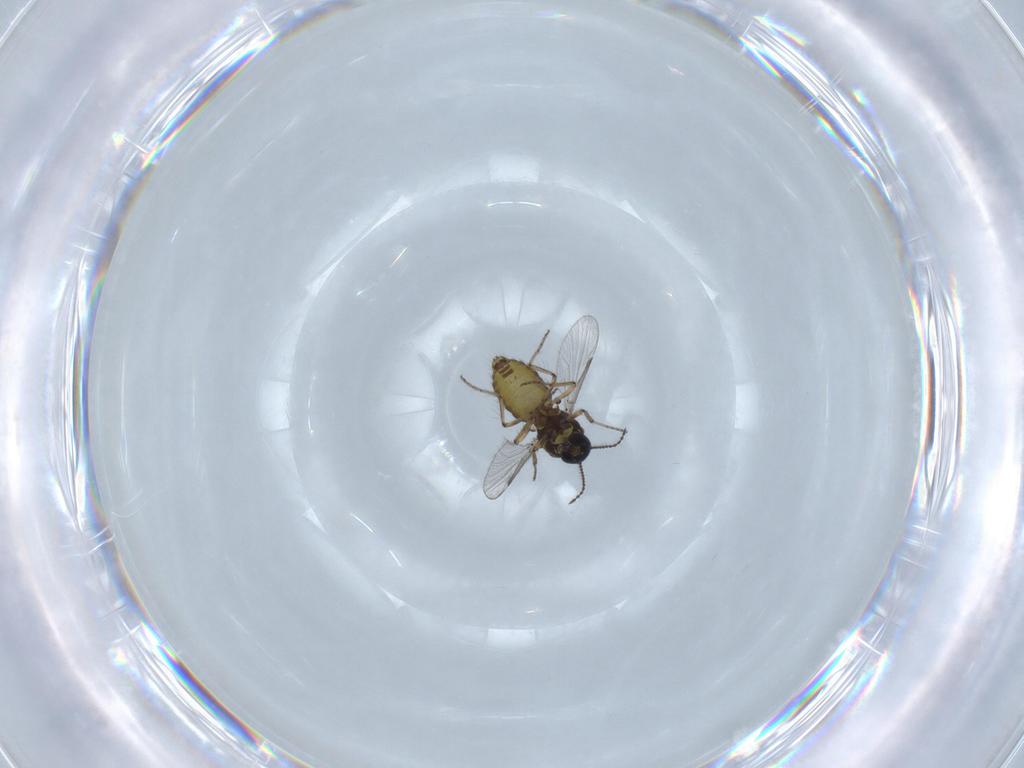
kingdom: Animalia
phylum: Arthropoda
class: Insecta
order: Diptera
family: Ceratopogonidae
